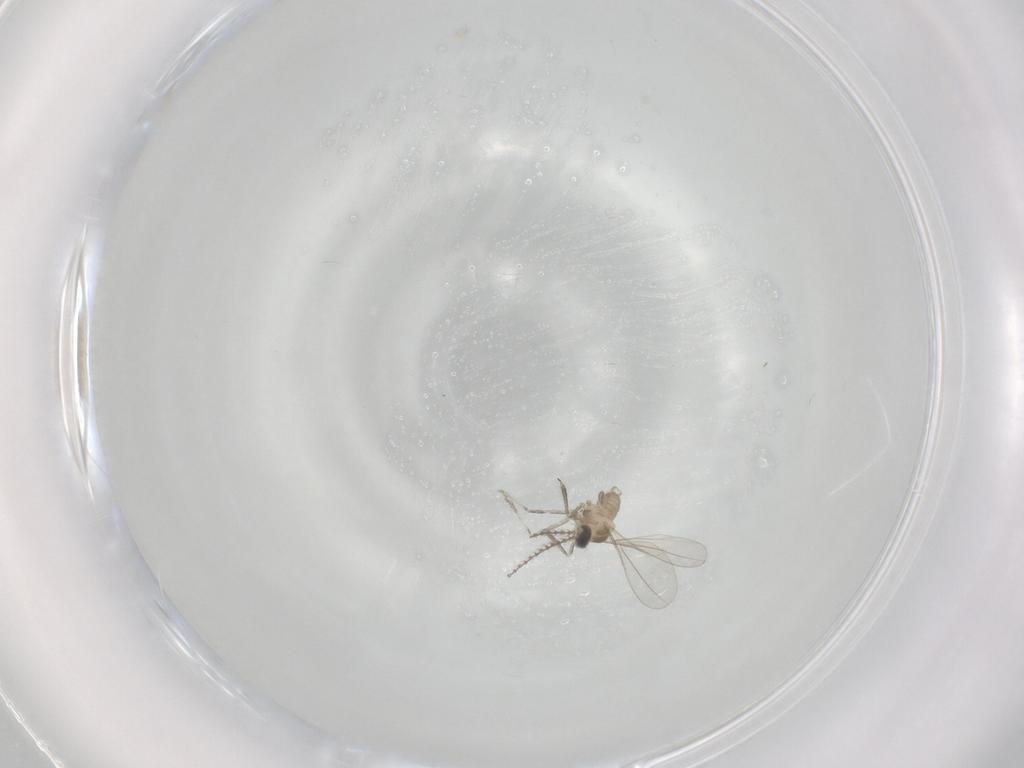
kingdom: Animalia
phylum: Arthropoda
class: Insecta
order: Diptera
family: Cecidomyiidae
